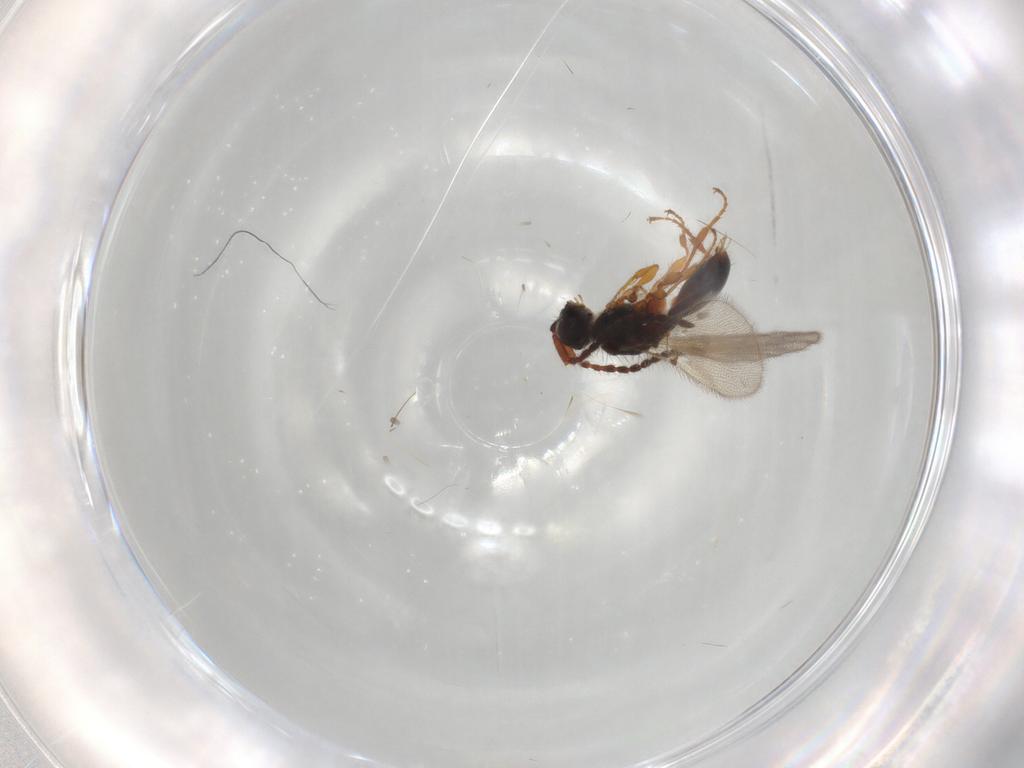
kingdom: Animalia
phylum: Arthropoda
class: Insecta
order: Hymenoptera
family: Diapriidae
